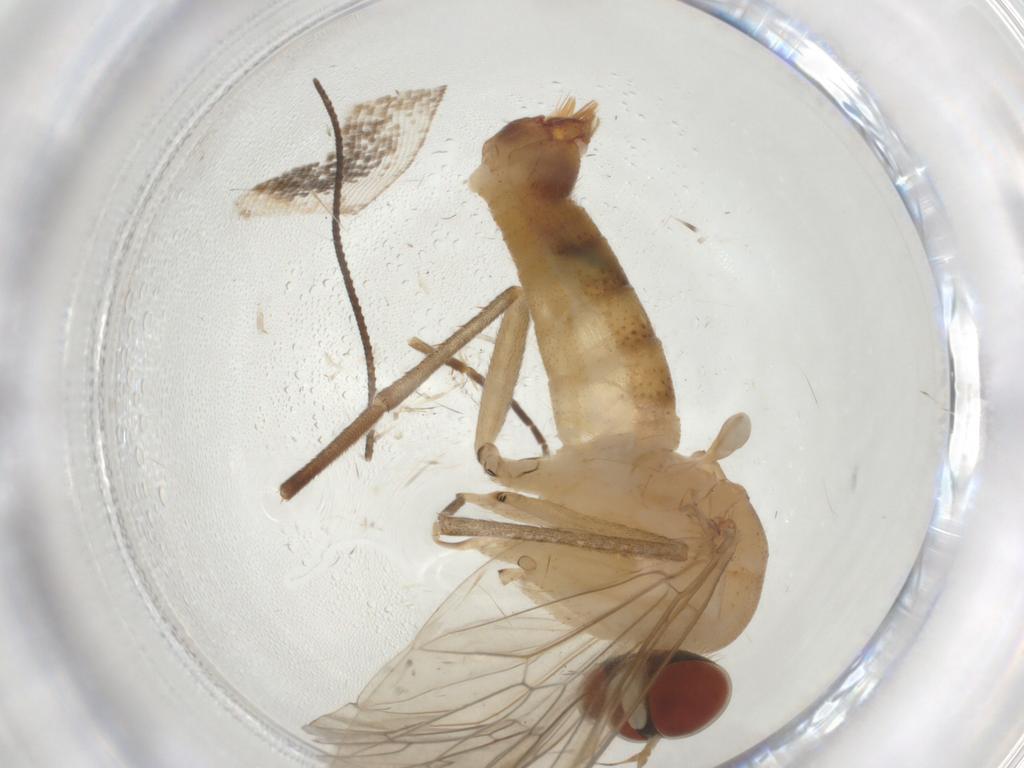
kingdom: Animalia
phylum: Arthropoda
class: Insecta
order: Diptera
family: Apsilocephalidae
